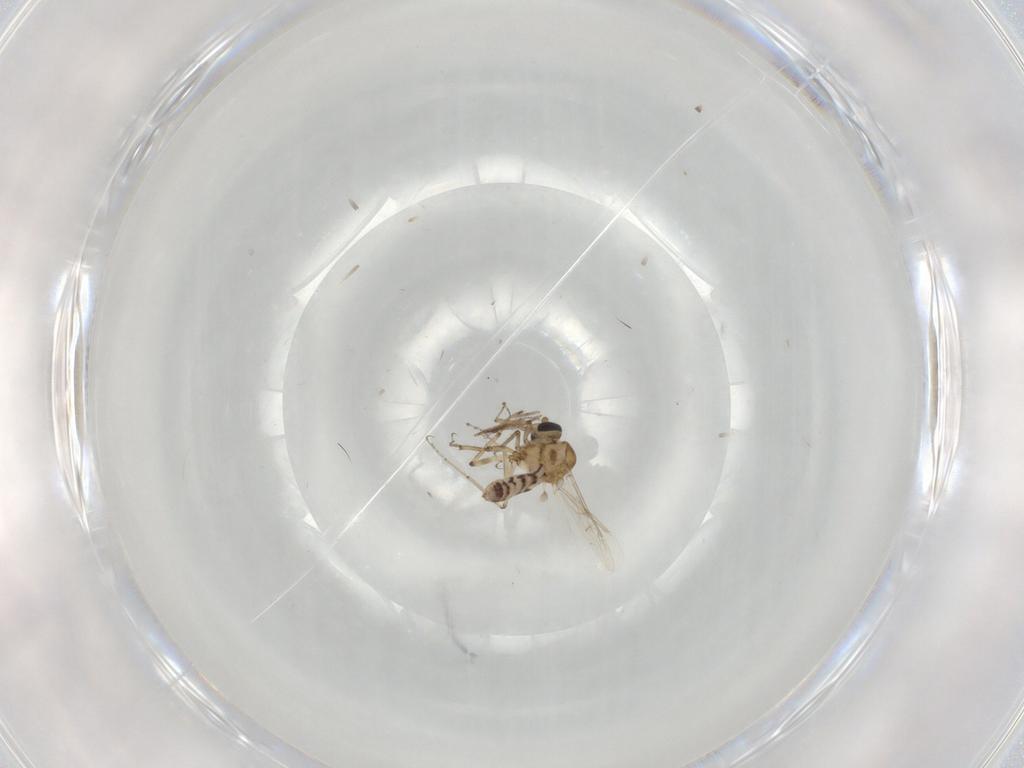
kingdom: Animalia
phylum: Arthropoda
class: Insecta
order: Diptera
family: Ceratopogonidae
